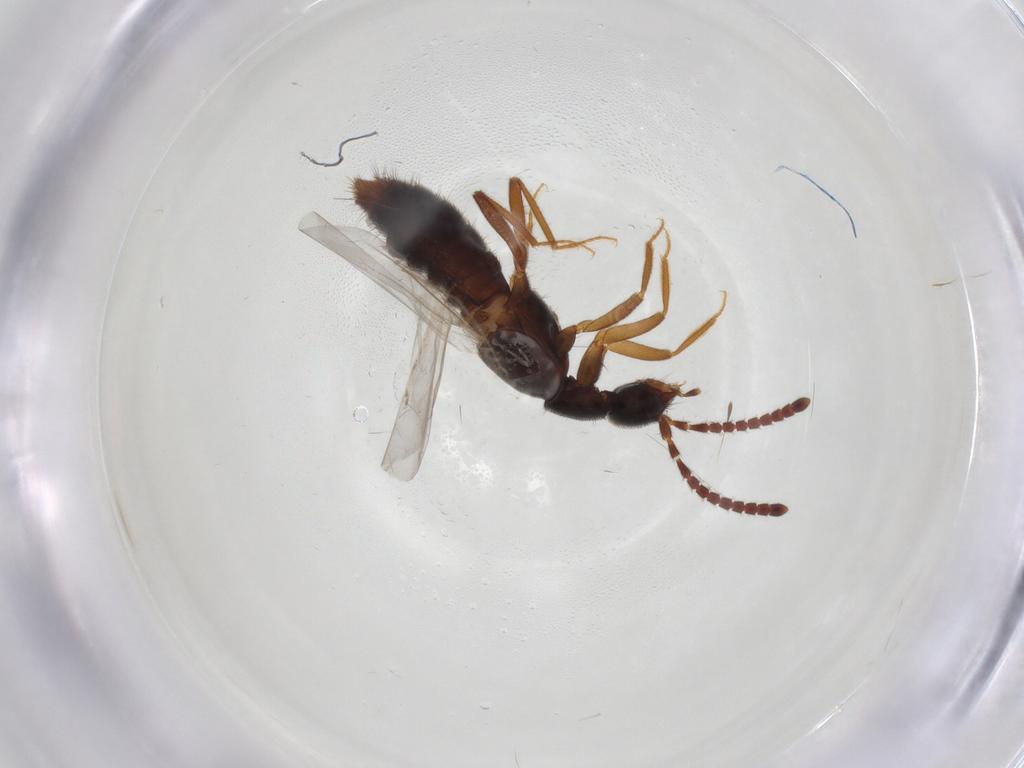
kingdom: Animalia
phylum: Arthropoda
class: Insecta
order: Coleoptera
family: Staphylinidae
